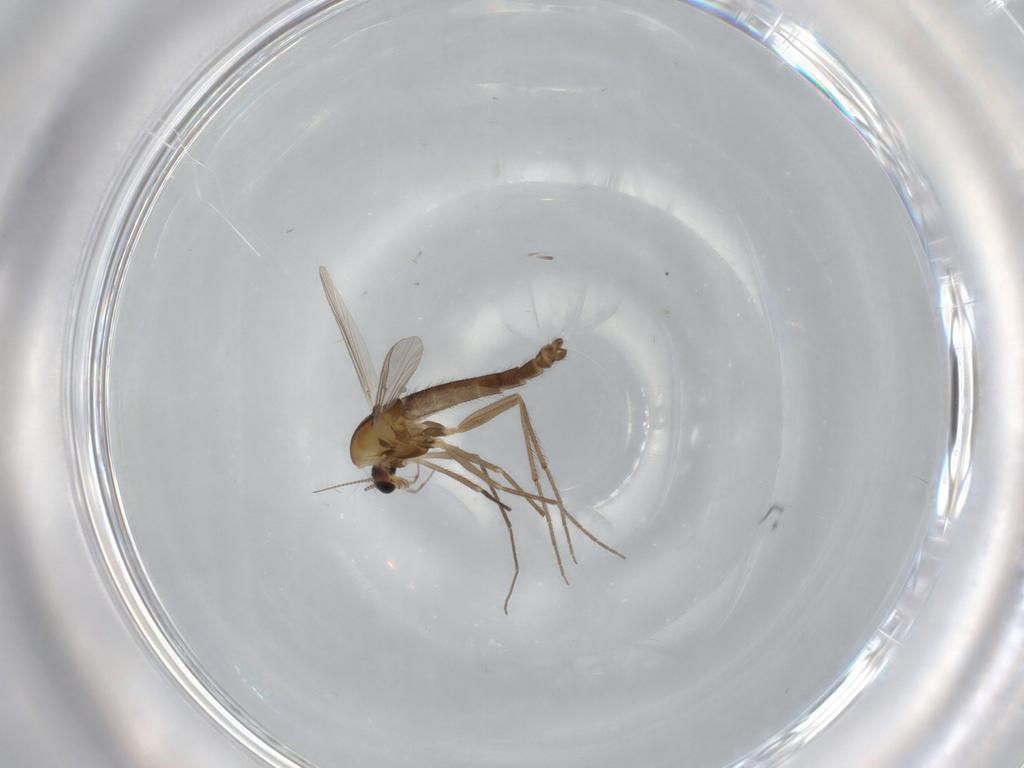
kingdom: Animalia
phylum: Arthropoda
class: Insecta
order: Diptera
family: Chironomidae
